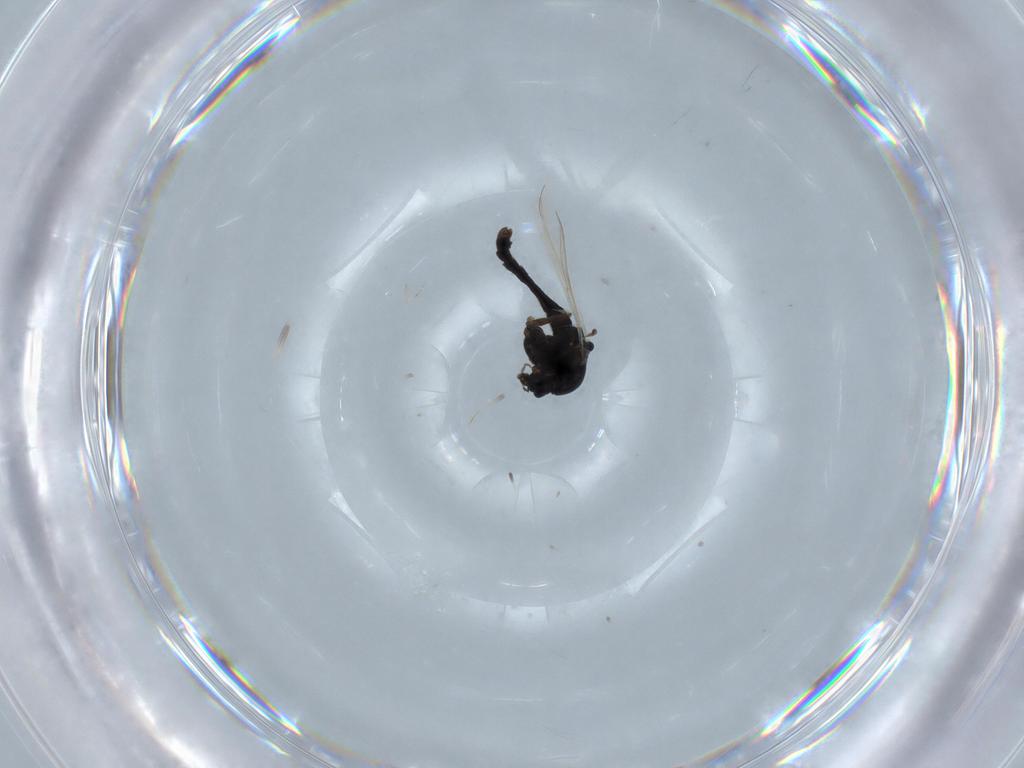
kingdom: Animalia
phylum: Arthropoda
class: Insecta
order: Diptera
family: Chironomidae
